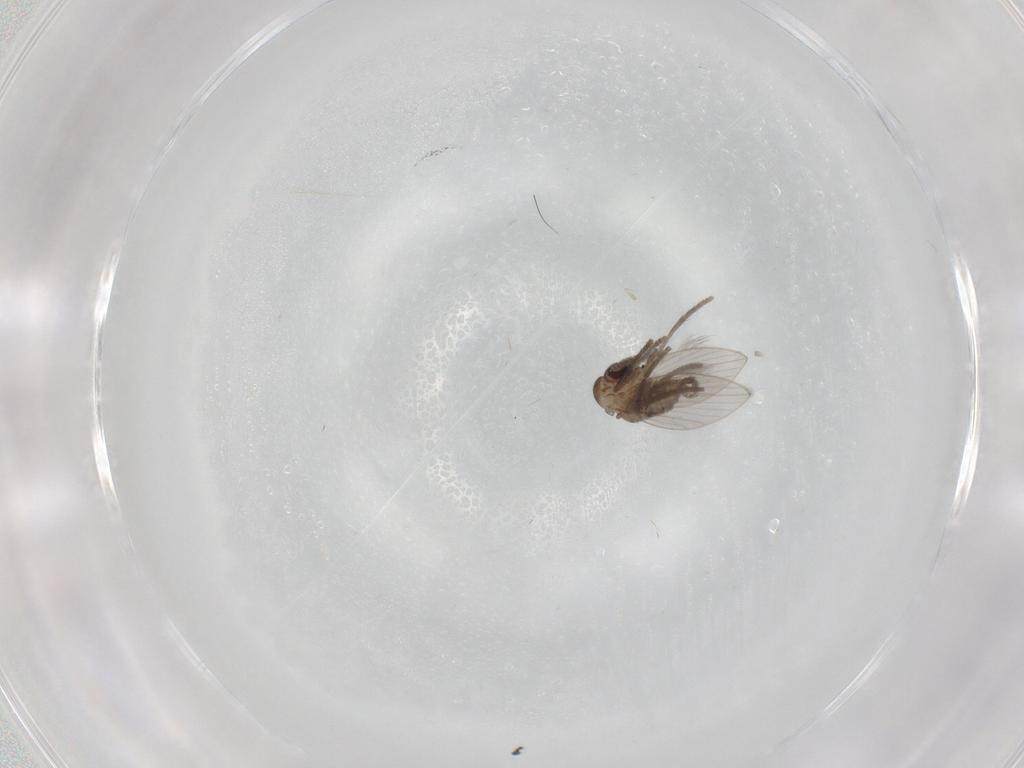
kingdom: Animalia
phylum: Arthropoda
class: Insecta
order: Diptera
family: Psychodidae
